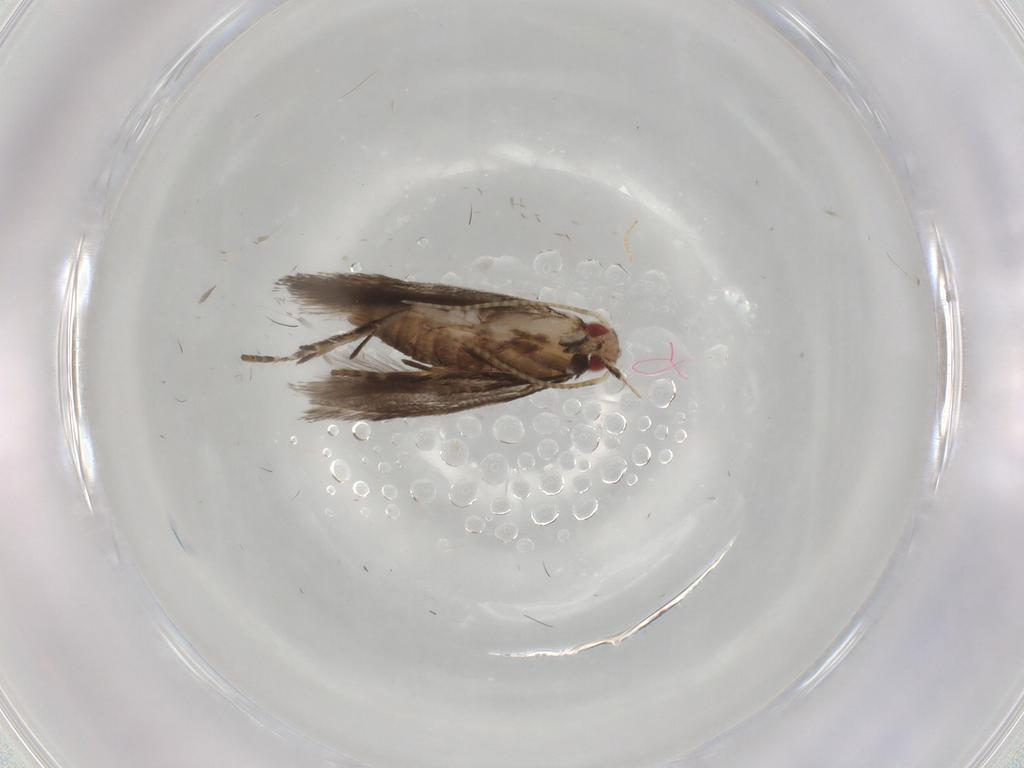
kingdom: Animalia
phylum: Arthropoda
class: Insecta
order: Lepidoptera
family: Gelechiidae
